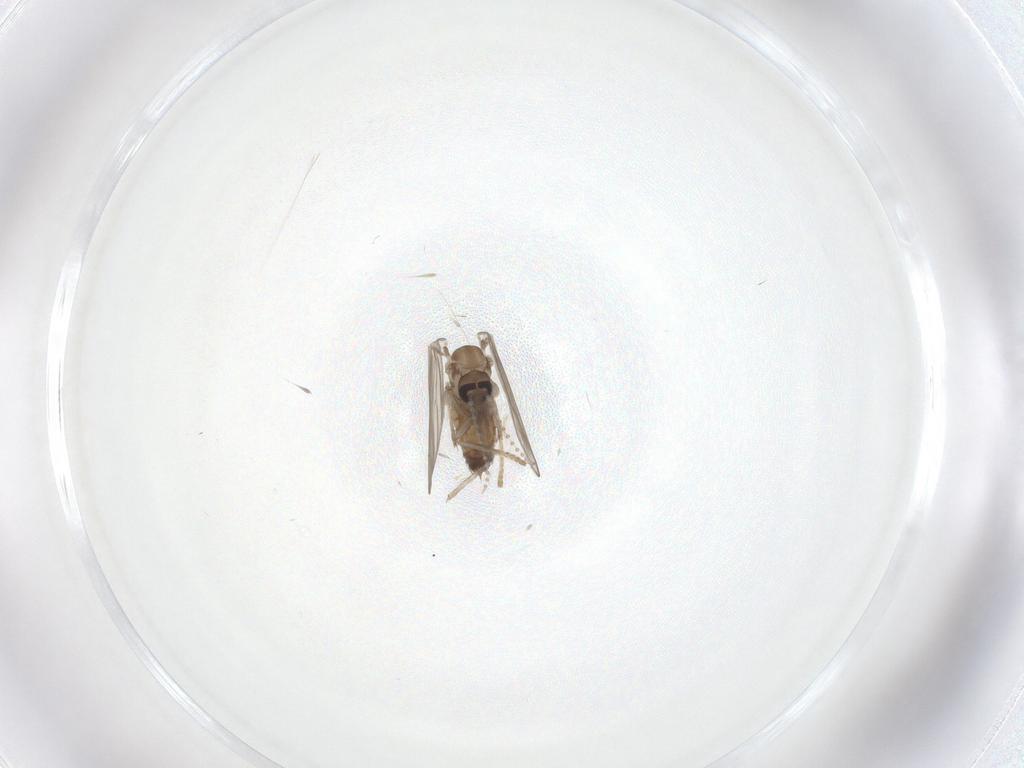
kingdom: Animalia
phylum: Arthropoda
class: Insecta
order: Diptera
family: Psychodidae
